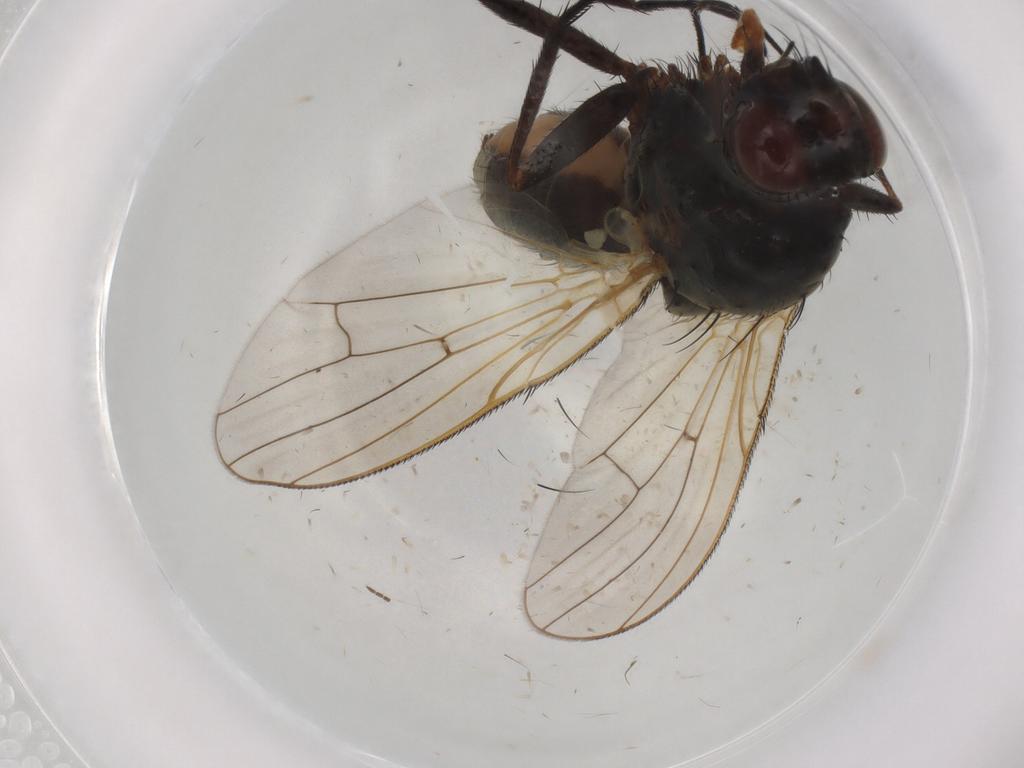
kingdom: Animalia
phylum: Arthropoda
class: Insecta
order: Diptera
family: Anthomyiidae
